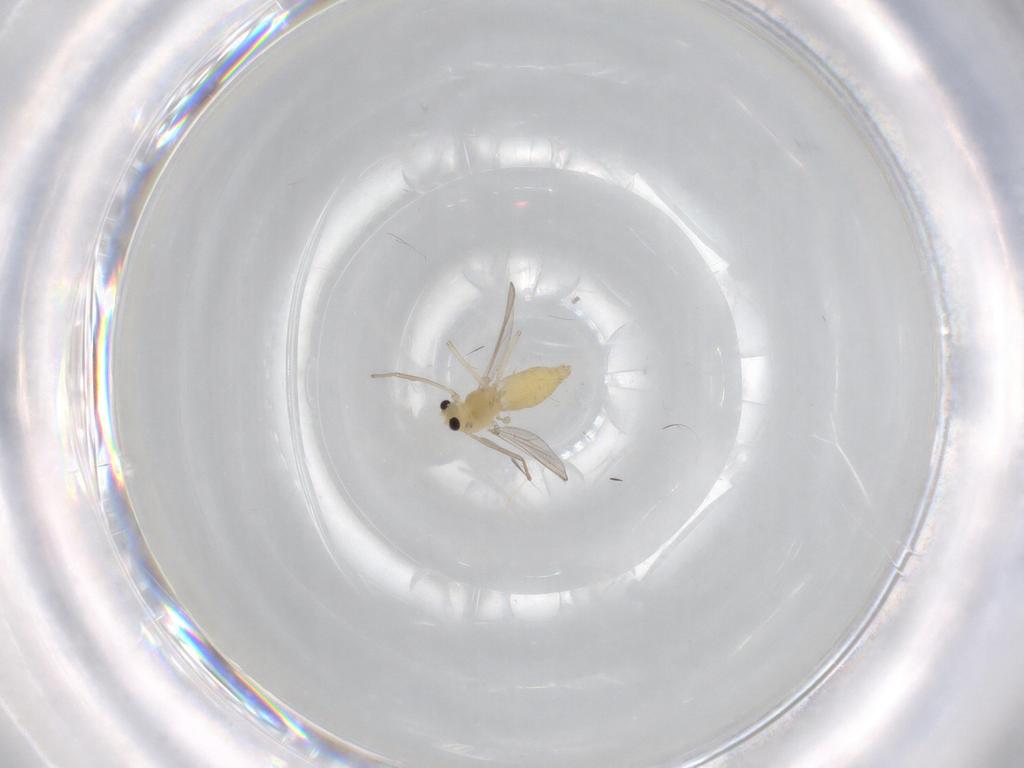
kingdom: Animalia
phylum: Arthropoda
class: Insecta
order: Diptera
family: Chironomidae
